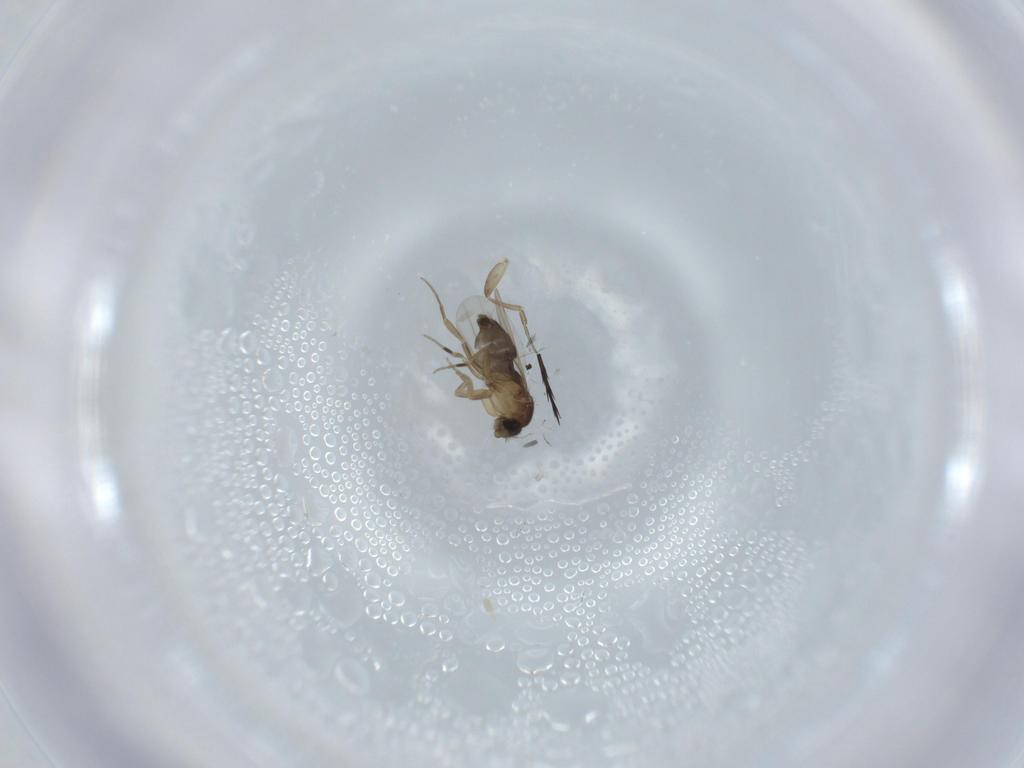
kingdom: Animalia
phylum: Arthropoda
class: Insecta
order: Diptera
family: Phoridae
